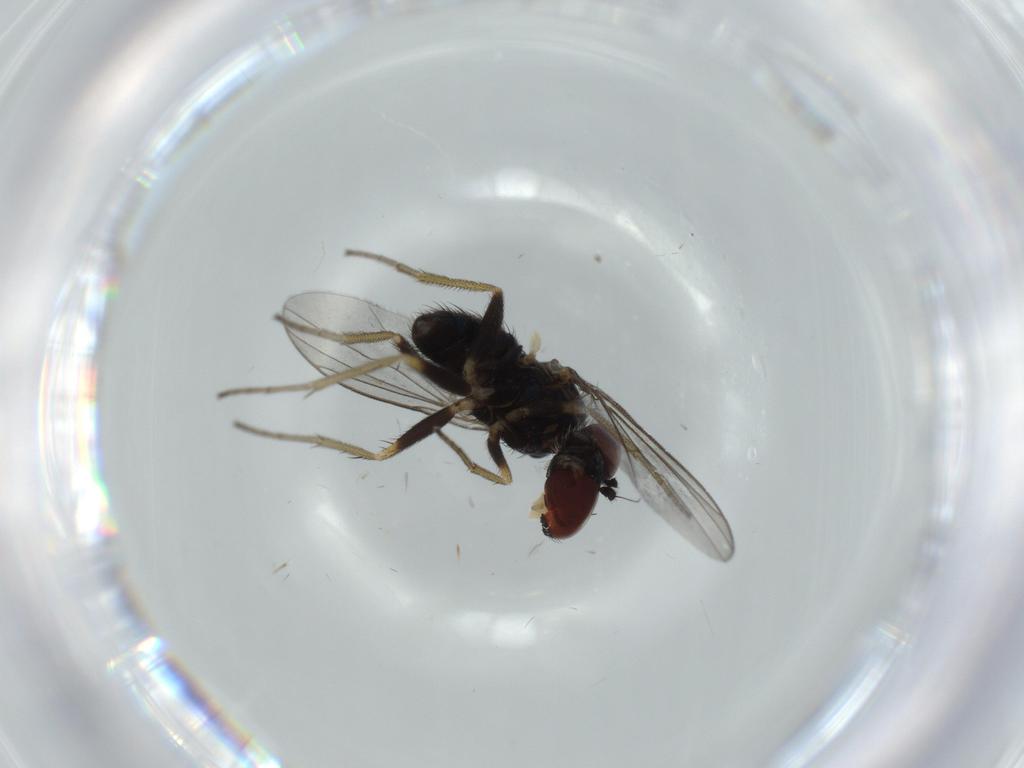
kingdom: Animalia
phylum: Arthropoda
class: Insecta
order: Diptera
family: Dolichopodidae
